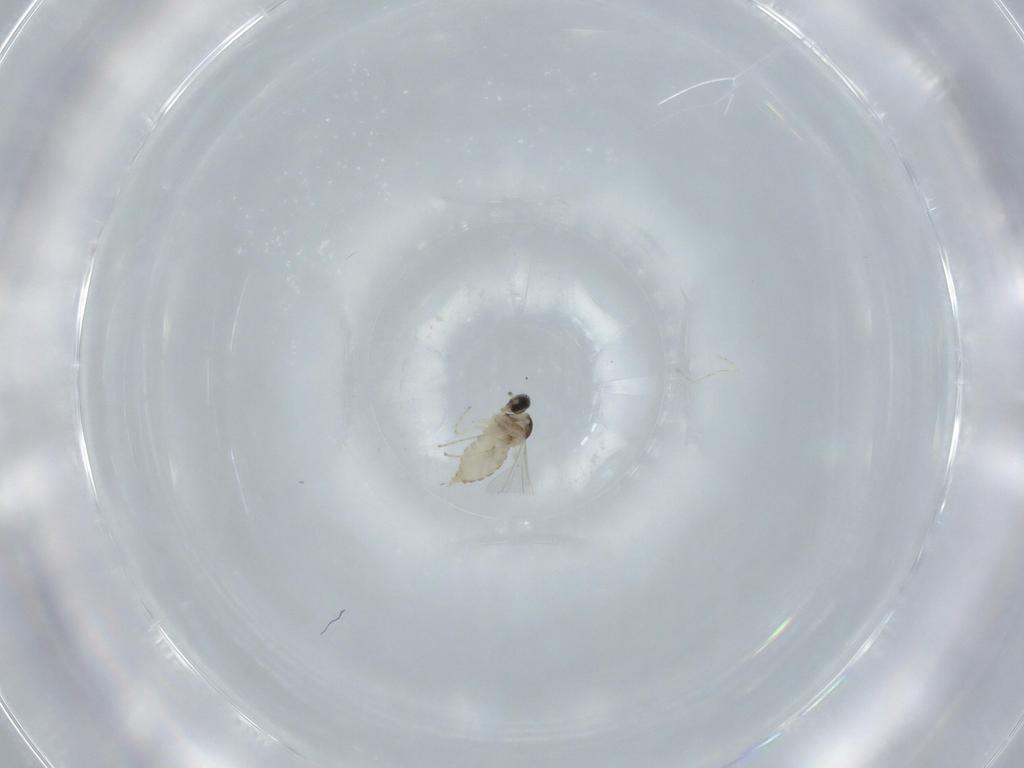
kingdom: Animalia
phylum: Arthropoda
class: Insecta
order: Diptera
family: Cecidomyiidae
